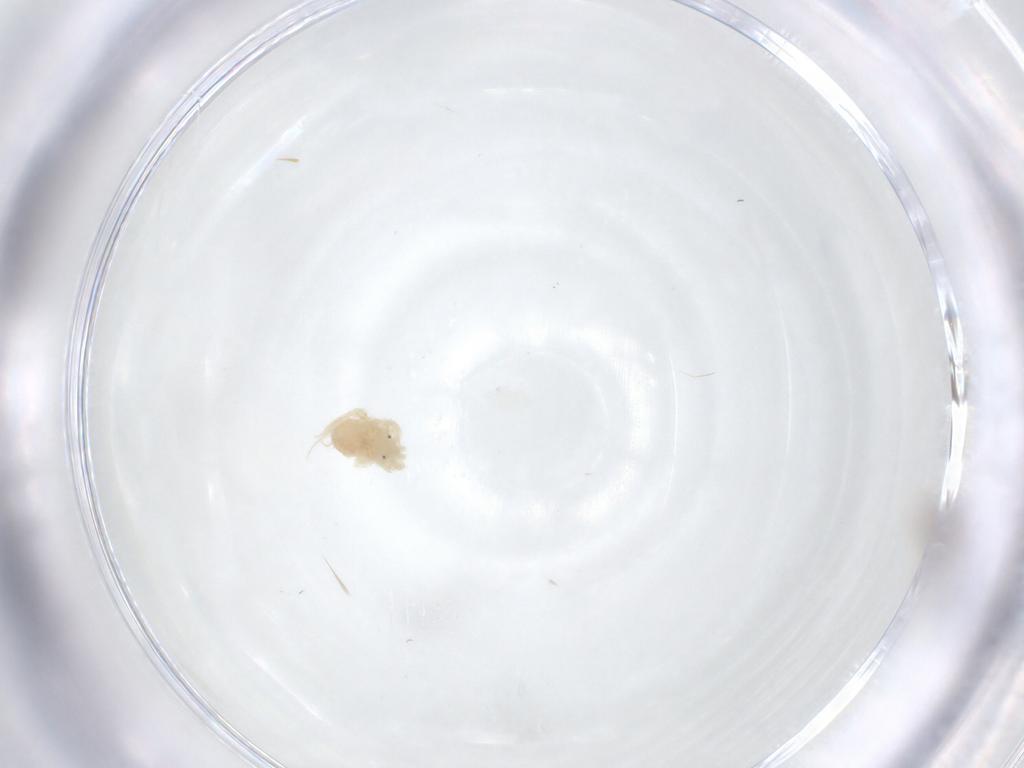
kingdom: Animalia
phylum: Arthropoda
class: Arachnida
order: Sarcoptiformes
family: Scheloribatidae
